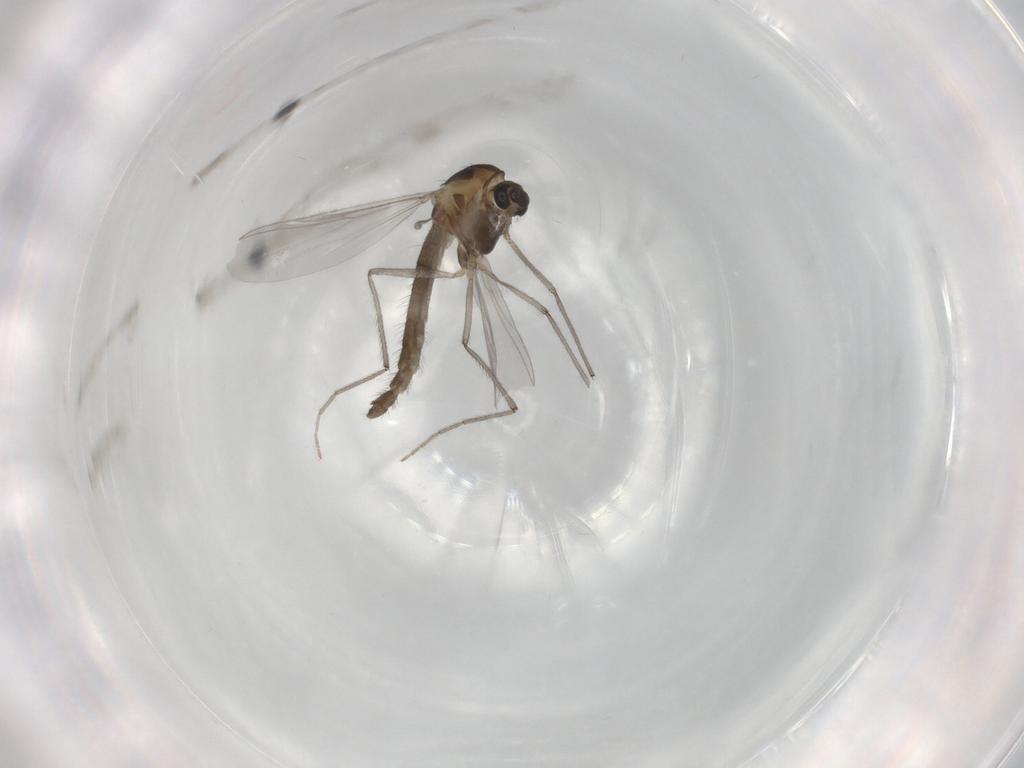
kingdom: Animalia
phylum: Arthropoda
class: Insecta
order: Diptera
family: Chironomidae
